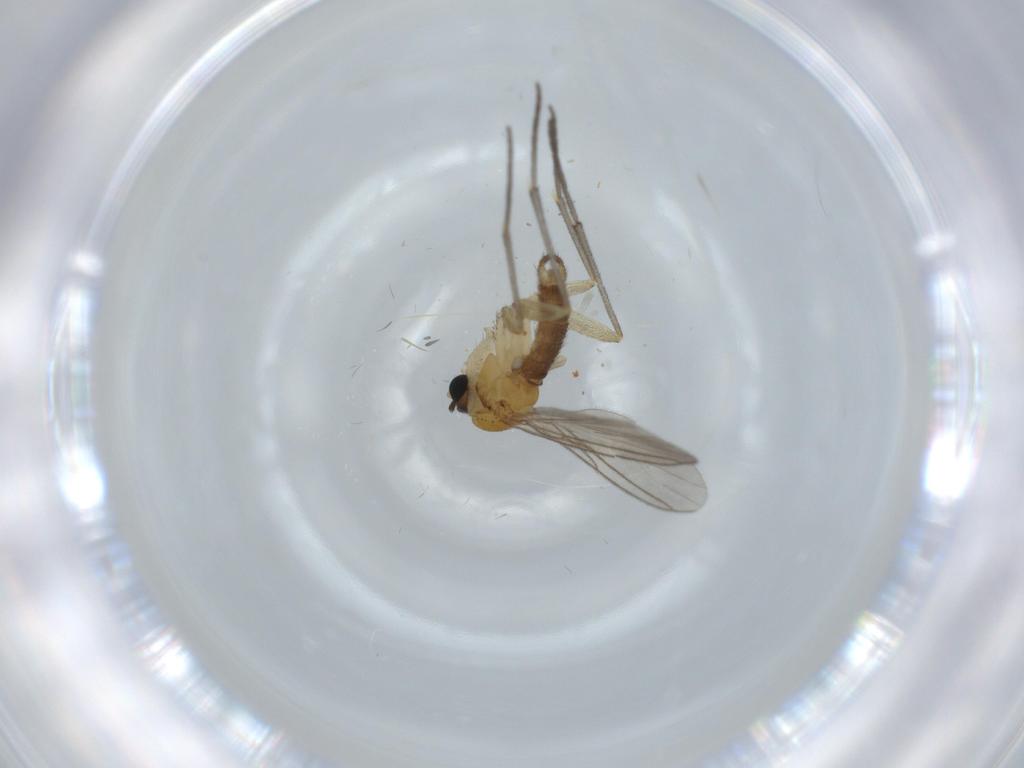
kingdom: Animalia
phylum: Arthropoda
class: Insecta
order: Diptera
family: Sciaridae
